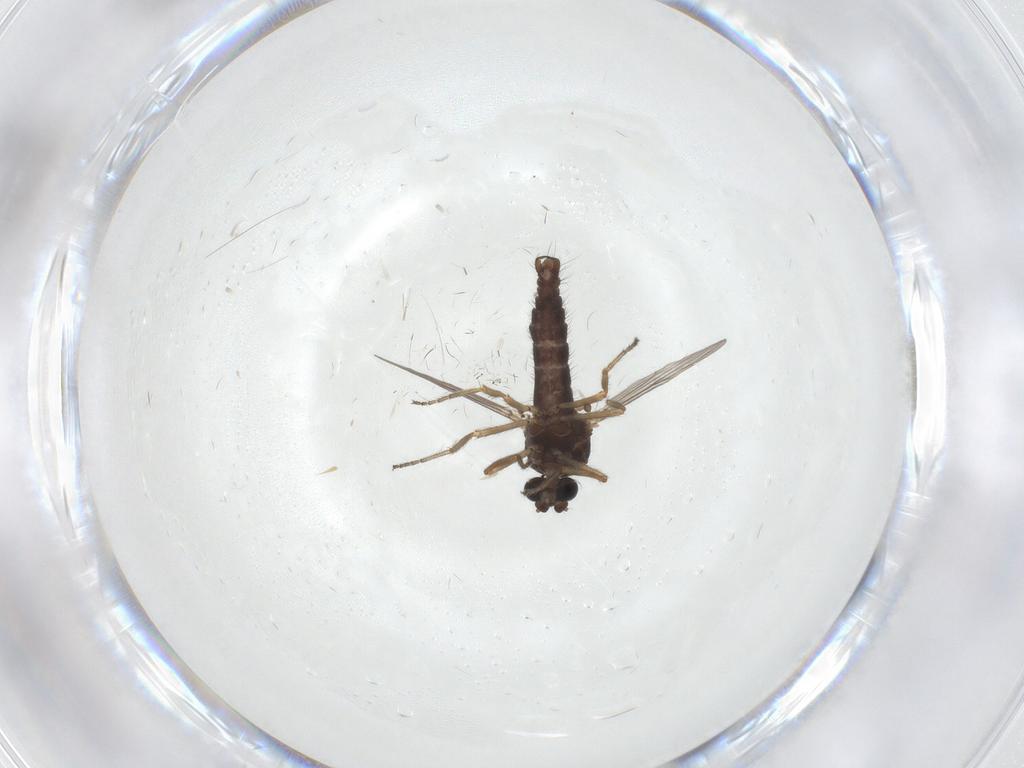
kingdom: Animalia
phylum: Arthropoda
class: Insecta
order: Diptera
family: Ceratopogonidae
